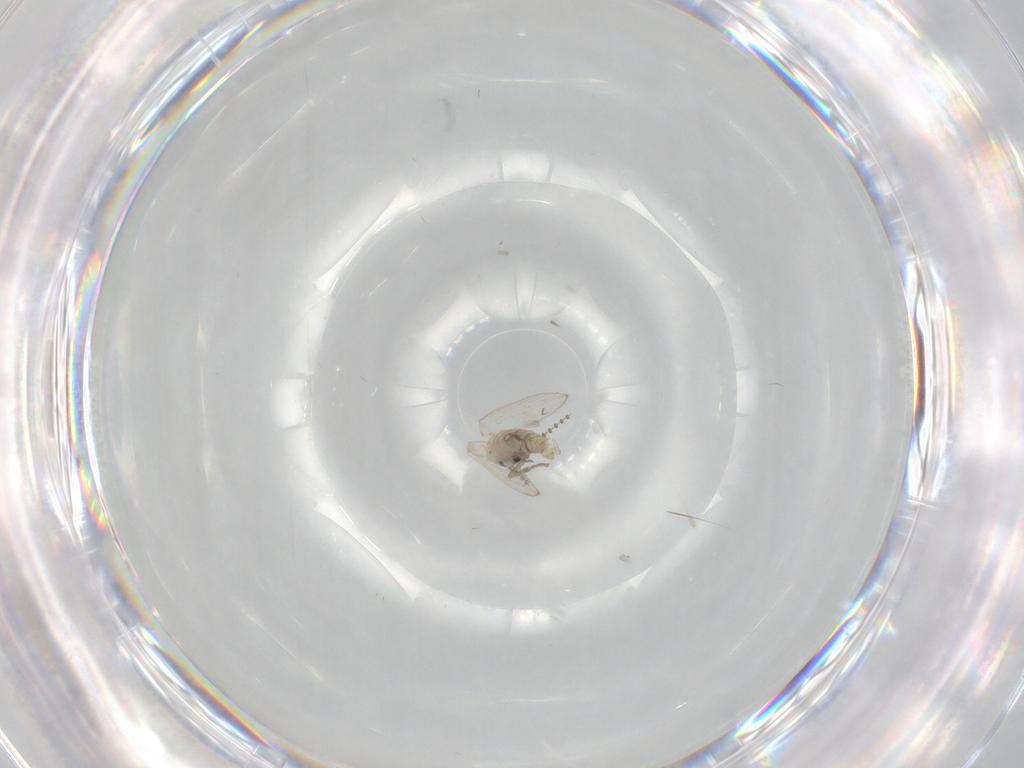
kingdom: Animalia
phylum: Arthropoda
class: Insecta
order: Diptera
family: Psychodidae
